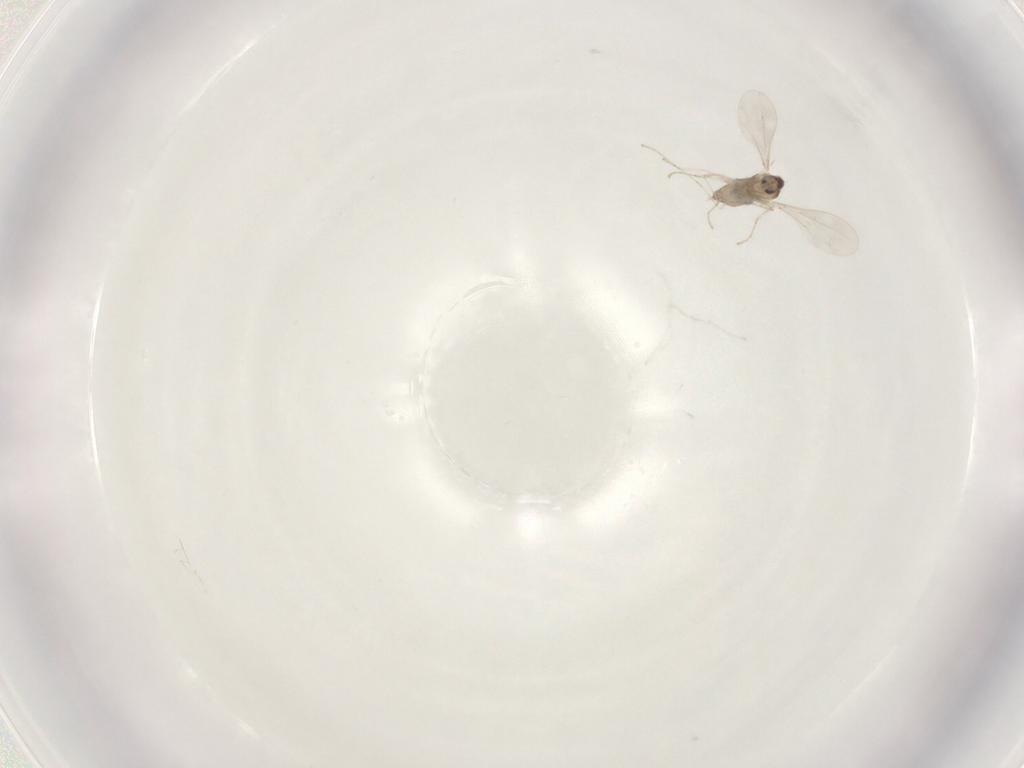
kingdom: Animalia
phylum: Arthropoda
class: Insecta
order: Diptera
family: Cecidomyiidae
